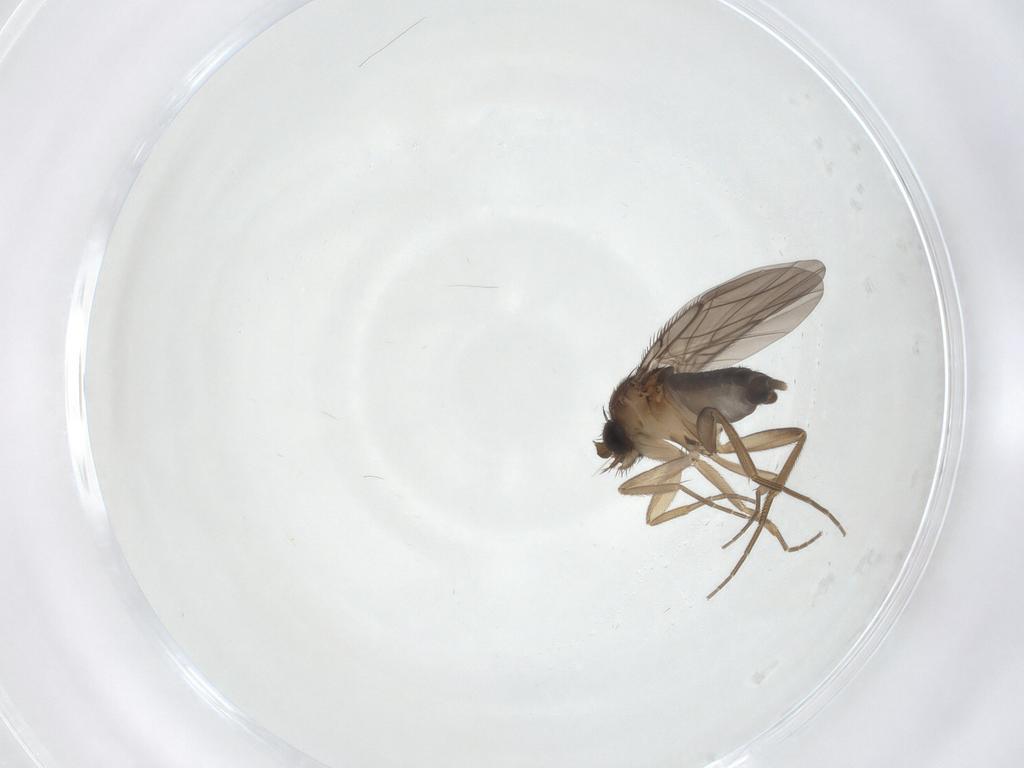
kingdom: Animalia
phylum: Arthropoda
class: Insecta
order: Diptera
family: Phoridae
